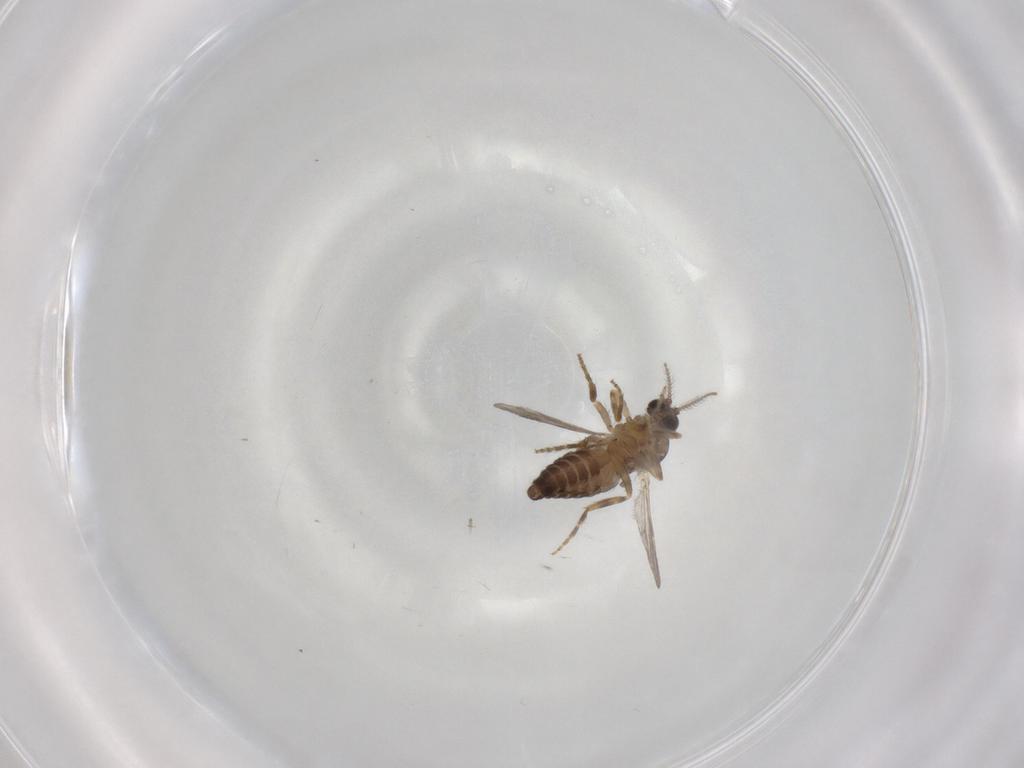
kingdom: Animalia
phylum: Arthropoda
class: Insecta
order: Diptera
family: Ceratopogonidae
